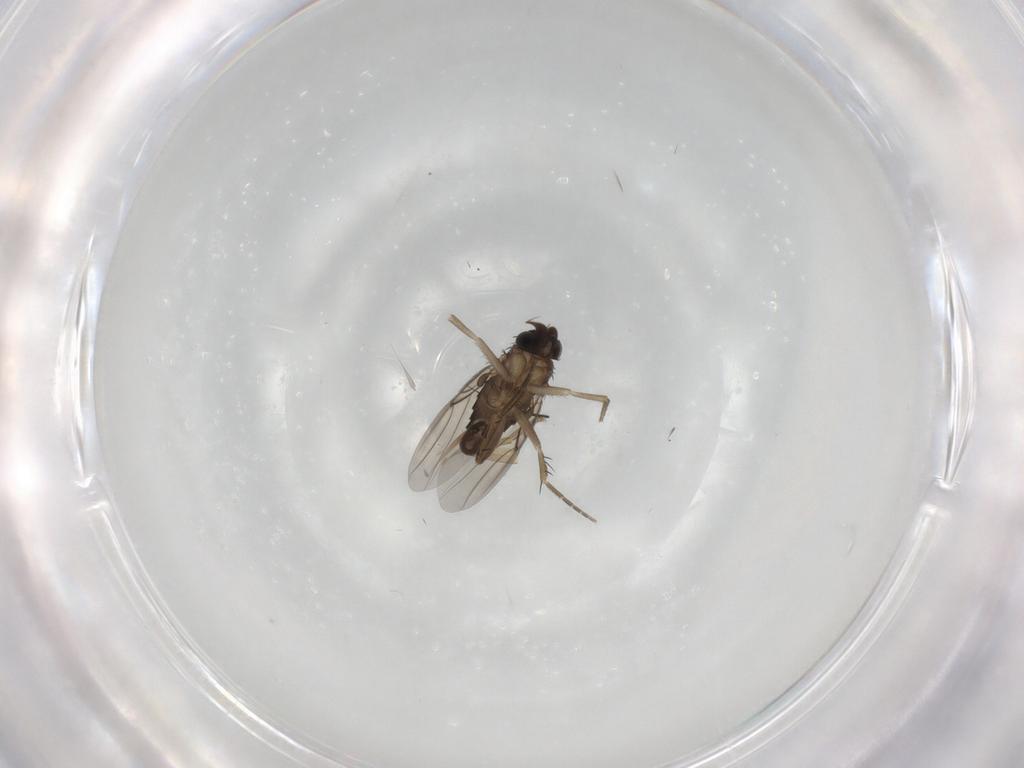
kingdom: Animalia
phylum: Arthropoda
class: Insecta
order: Diptera
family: Phoridae
